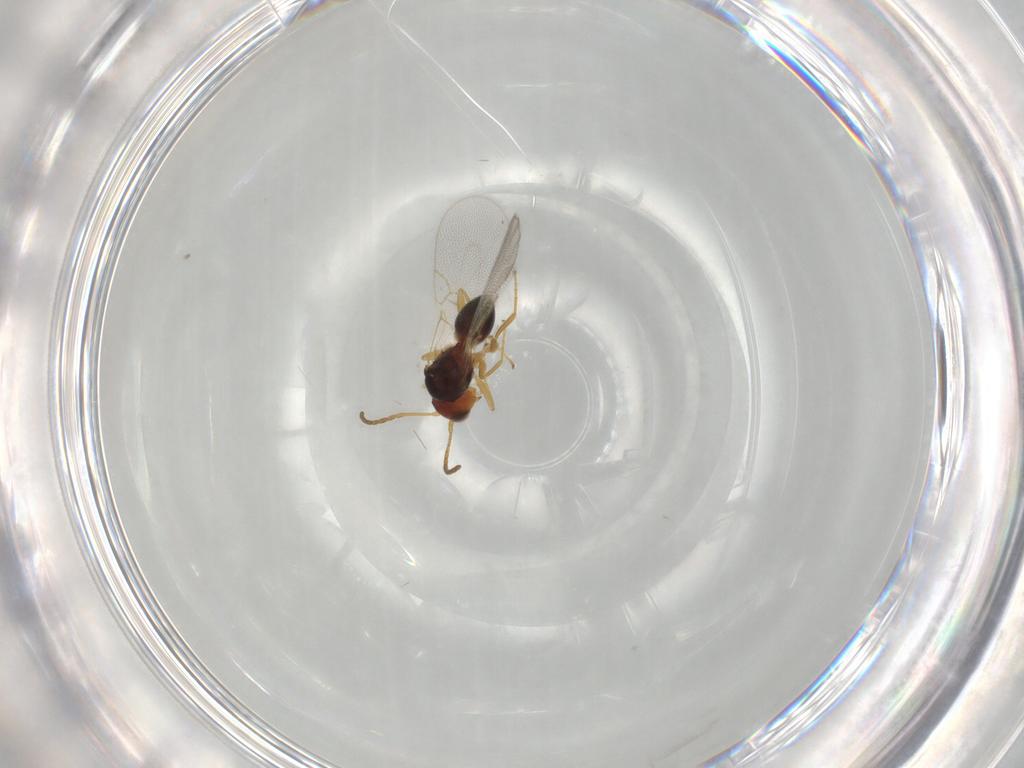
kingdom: Animalia
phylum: Arthropoda
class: Insecta
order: Hymenoptera
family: Figitidae
